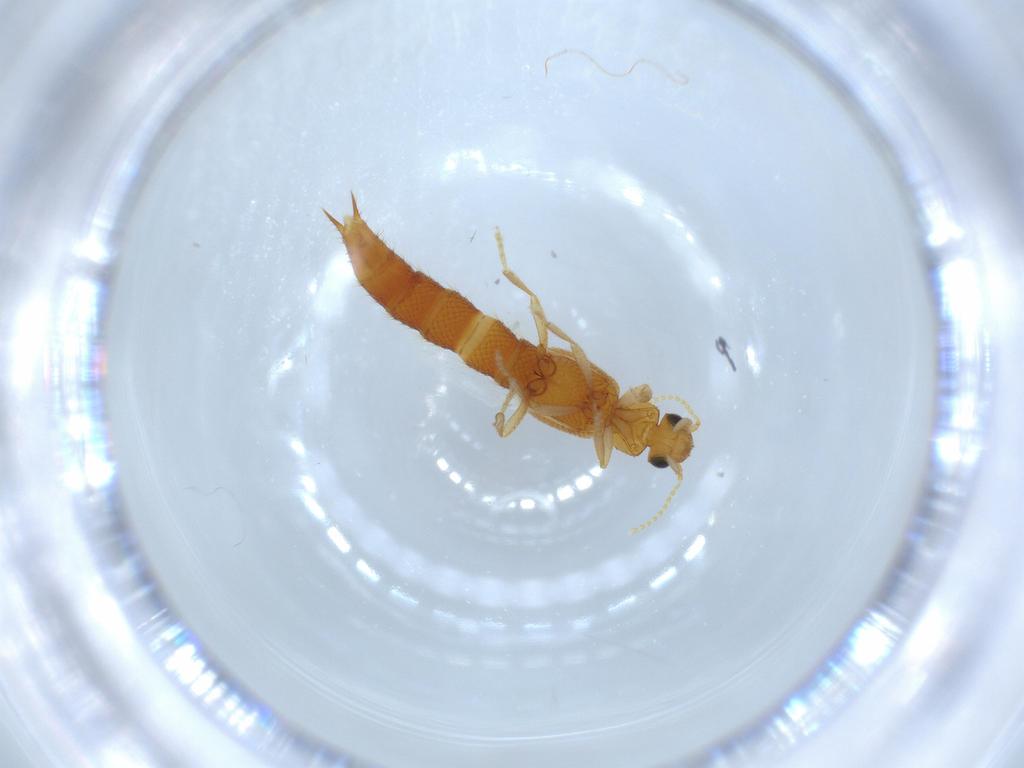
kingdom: Animalia
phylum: Arthropoda
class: Insecta
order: Coleoptera
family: Staphylinidae
